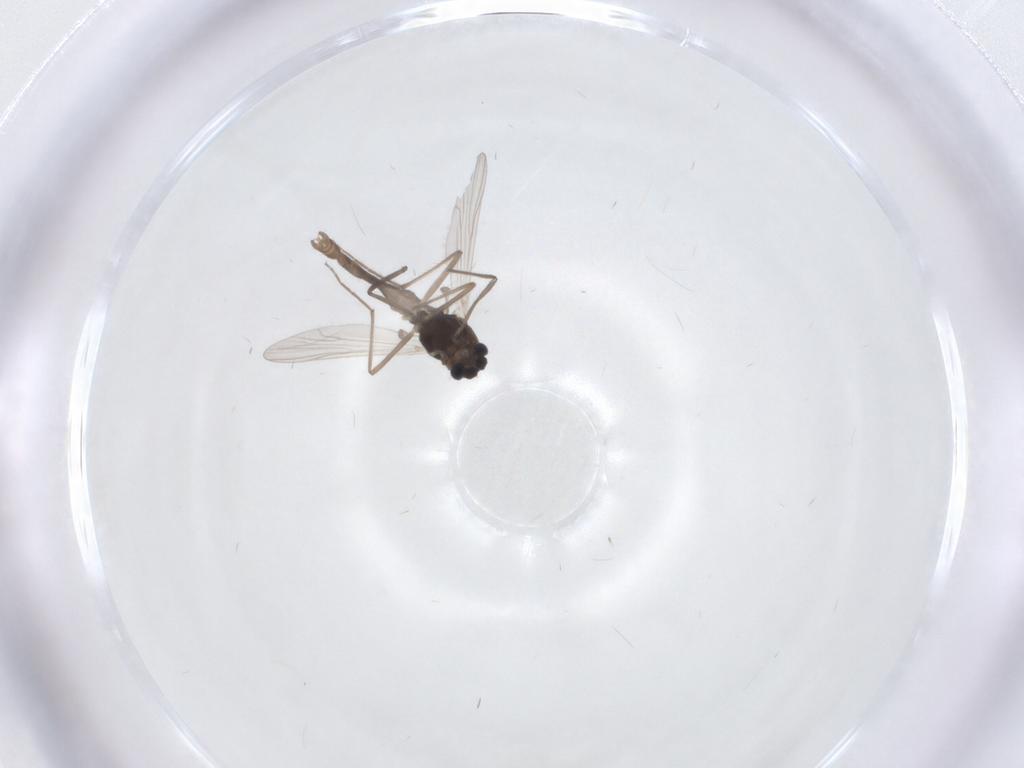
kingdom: Animalia
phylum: Arthropoda
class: Insecta
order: Diptera
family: Chironomidae
